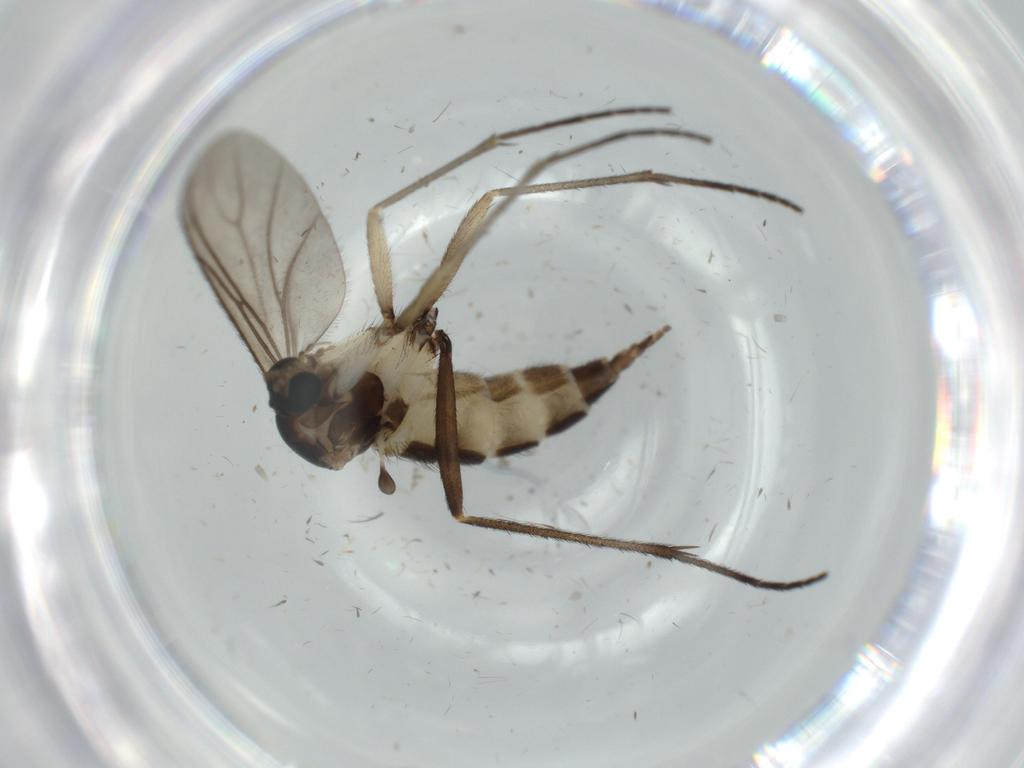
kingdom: Animalia
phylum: Arthropoda
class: Insecta
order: Diptera
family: Sciaridae
